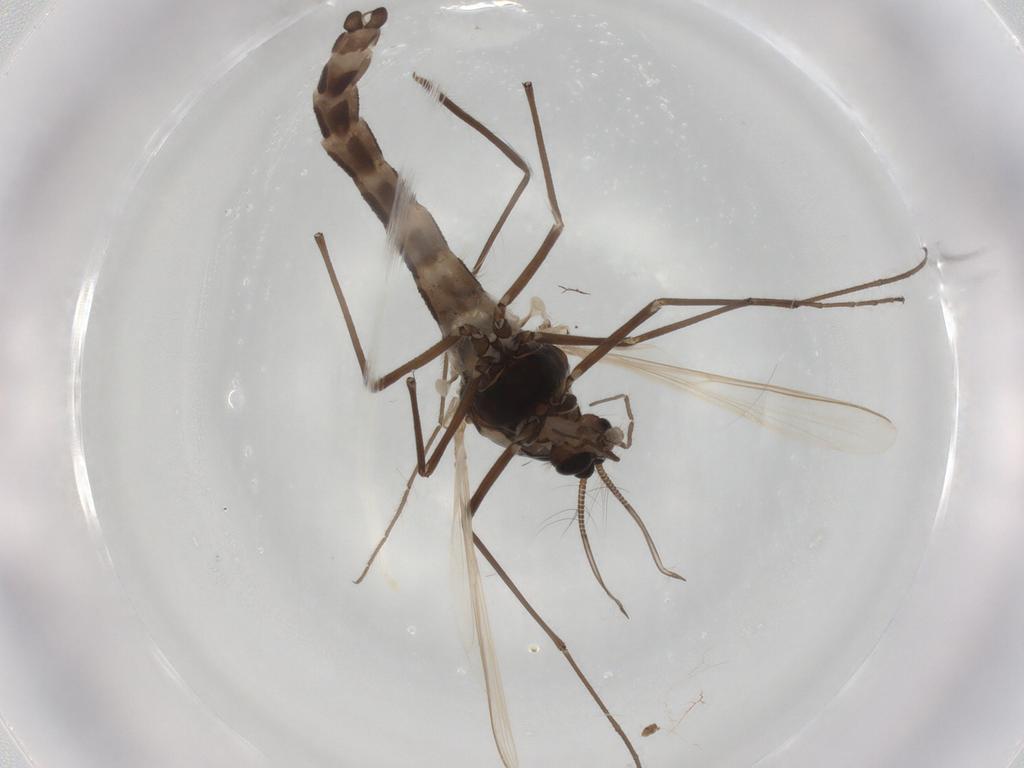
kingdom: Animalia
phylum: Arthropoda
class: Insecta
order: Diptera
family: Chironomidae
